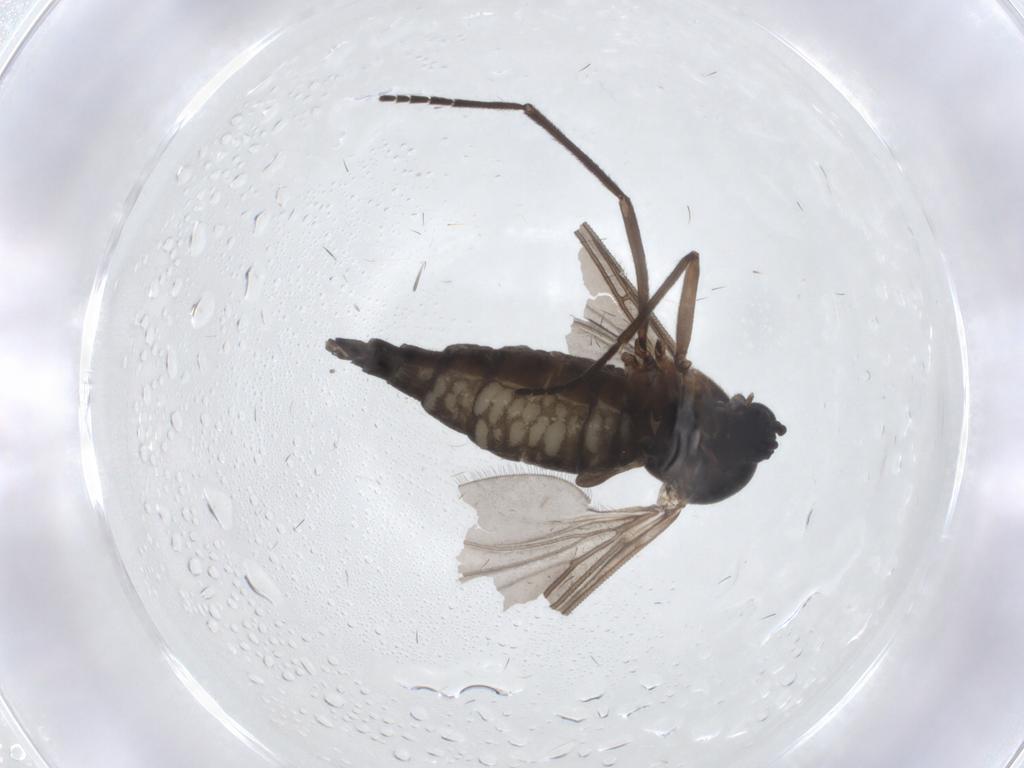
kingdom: Animalia
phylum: Arthropoda
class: Insecta
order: Diptera
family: Sciaridae
